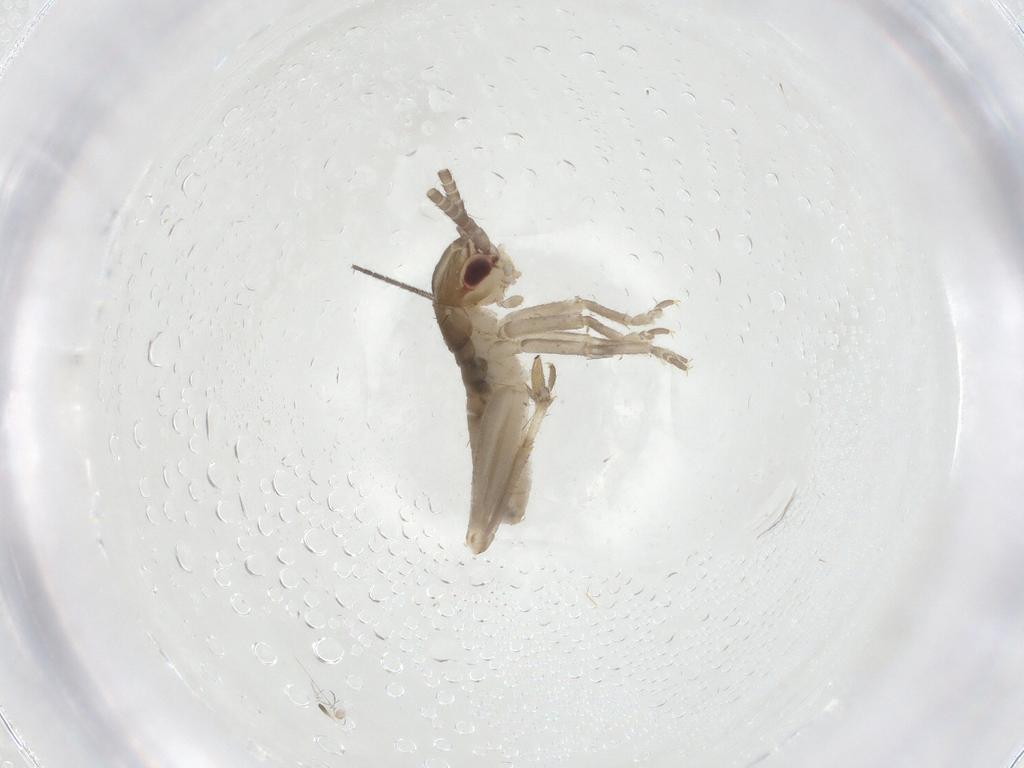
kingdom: Animalia
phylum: Arthropoda
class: Insecta
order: Orthoptera
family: Gryllidae
